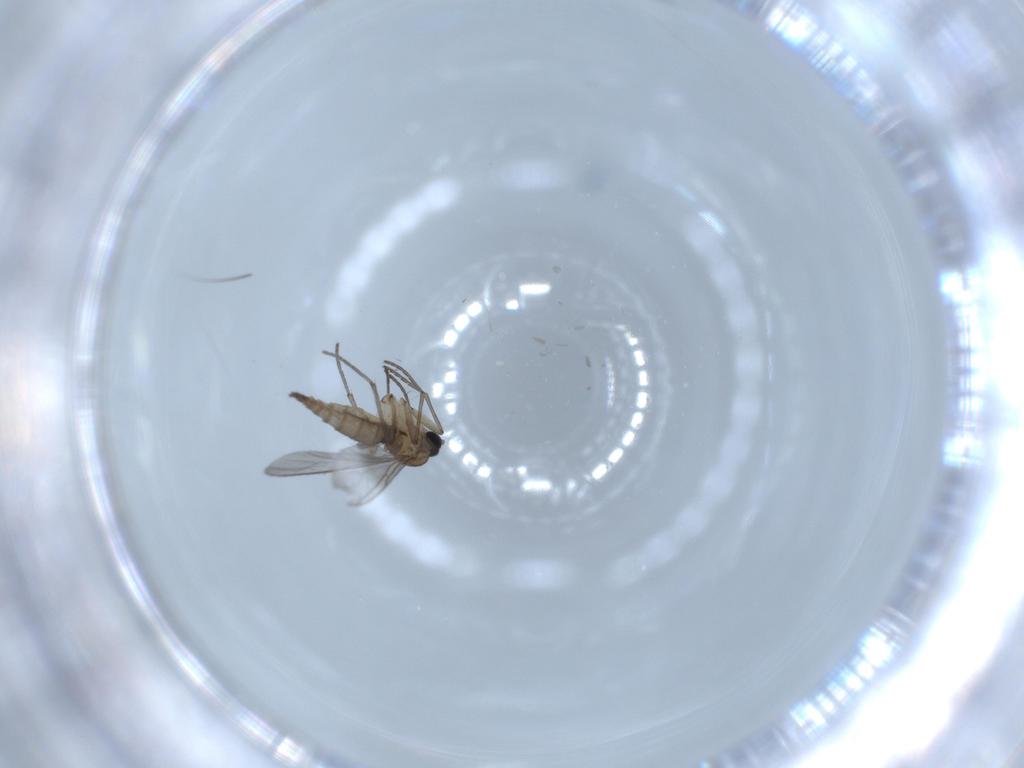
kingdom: Animalia
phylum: Arthropoda
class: Insecta
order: Diptera
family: Sciaridae
